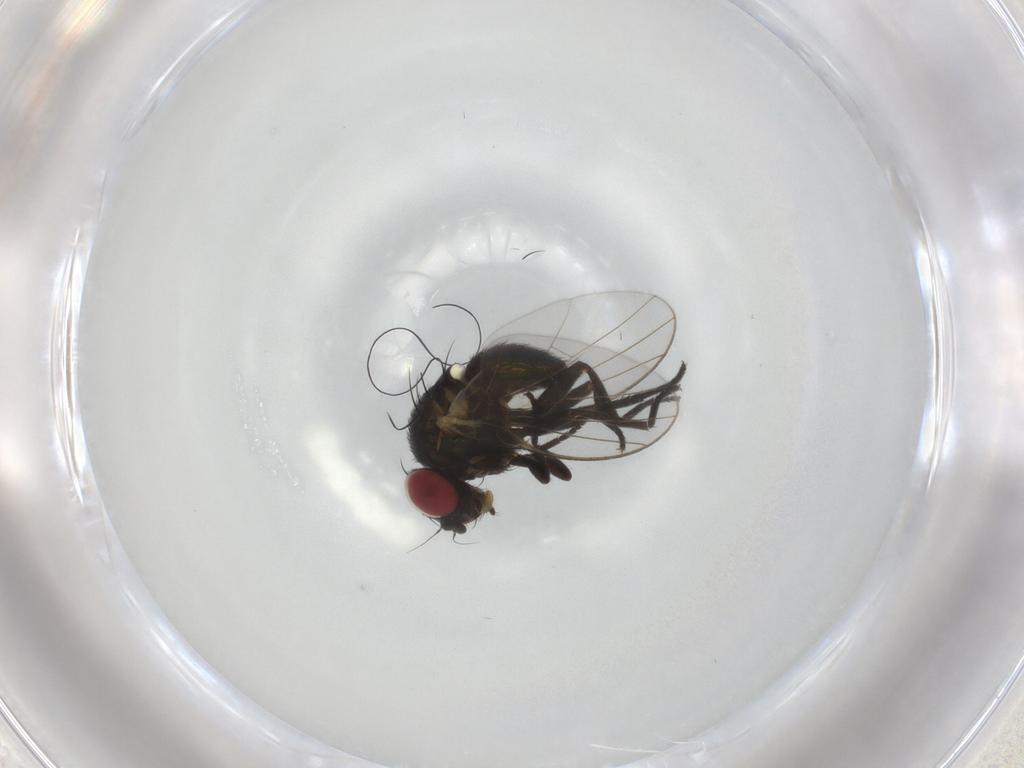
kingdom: Animalia
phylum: Arthropoda
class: Insecta
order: Diptera
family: Agromyzidae
